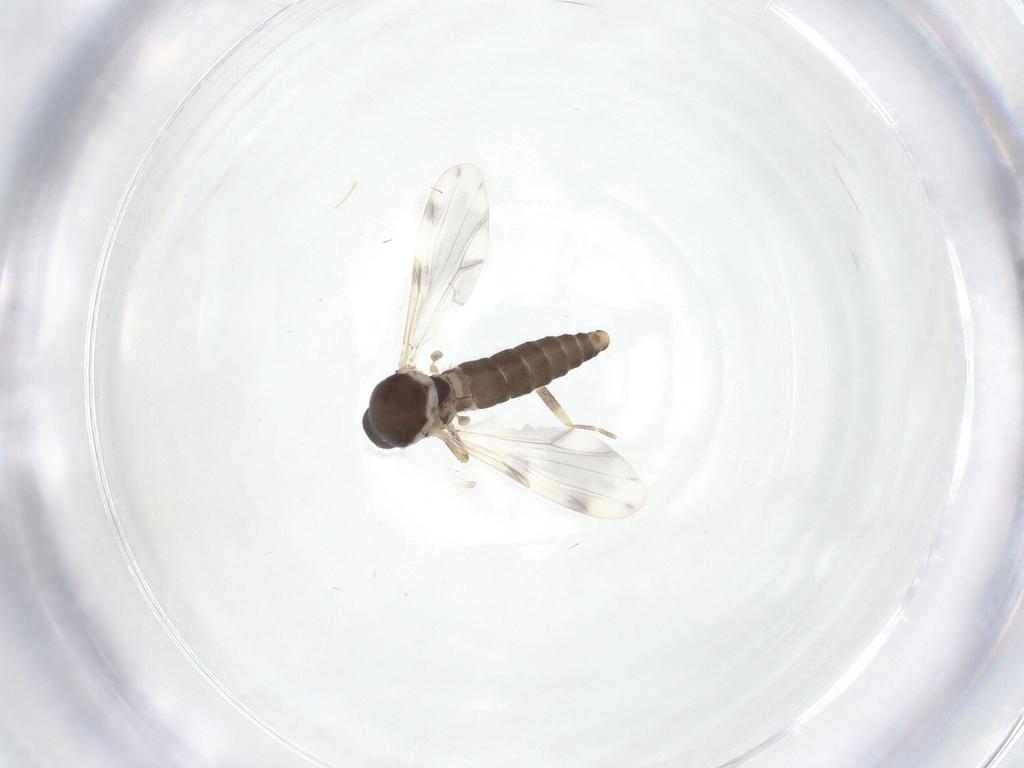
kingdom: Animalia
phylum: Arthropoda
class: Insecta
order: Diptera
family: Ceratopogonidae
